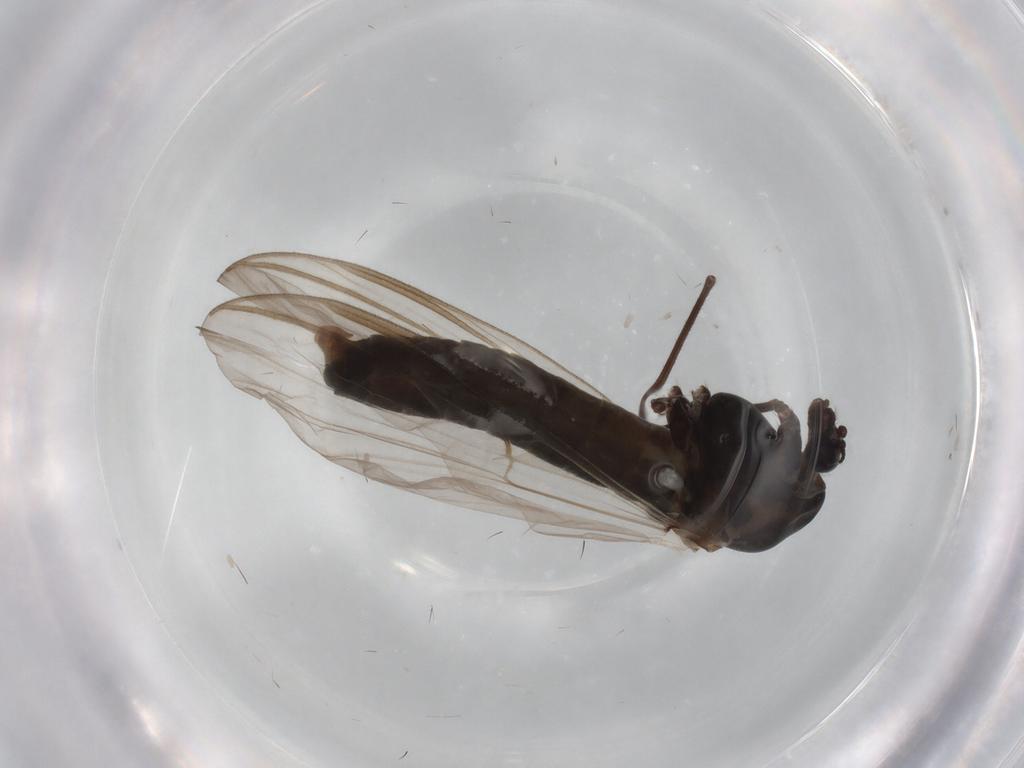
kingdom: Animalia
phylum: Arthropoda
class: Insecta
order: Diptera
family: Chironomidae
